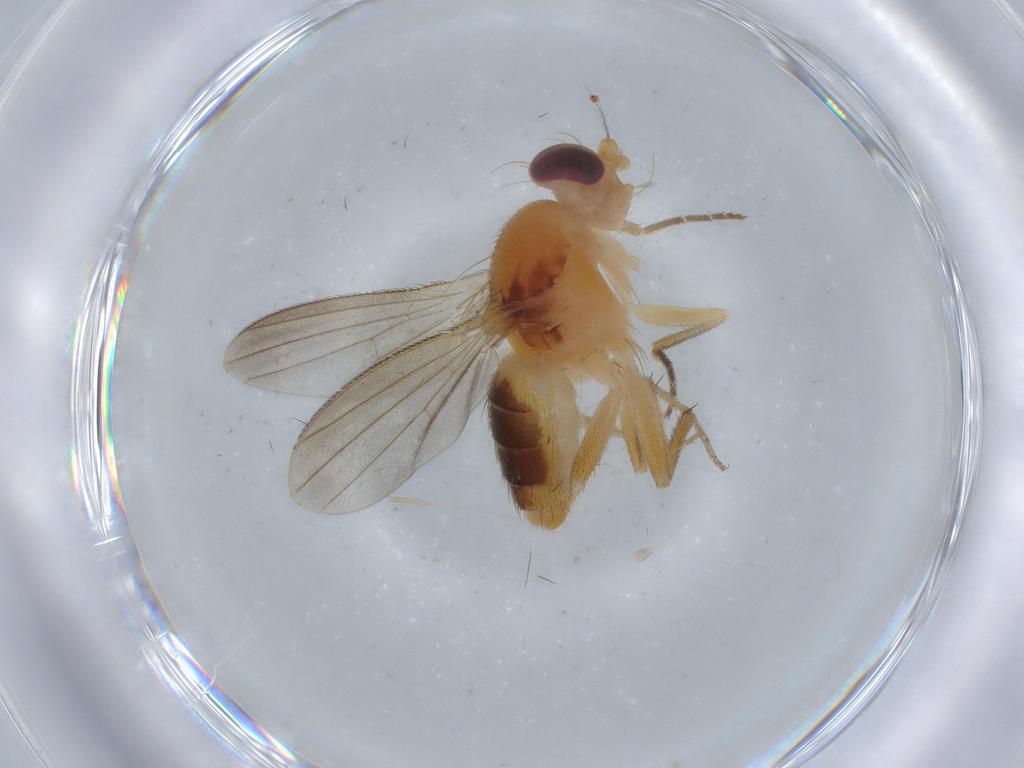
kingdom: Animalia
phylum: Arthropoda
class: Insecta
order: Diptera
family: Agromyzidae
